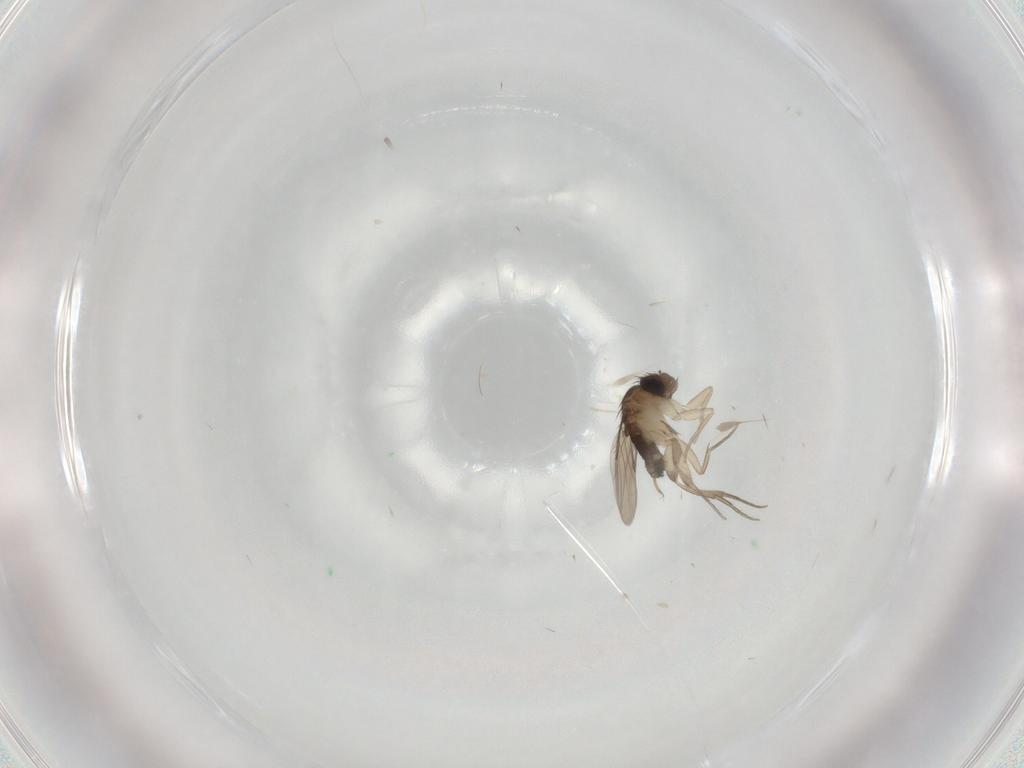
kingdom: Animalia
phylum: Arthropoda
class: Insecta
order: Diptera
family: Phoridae
